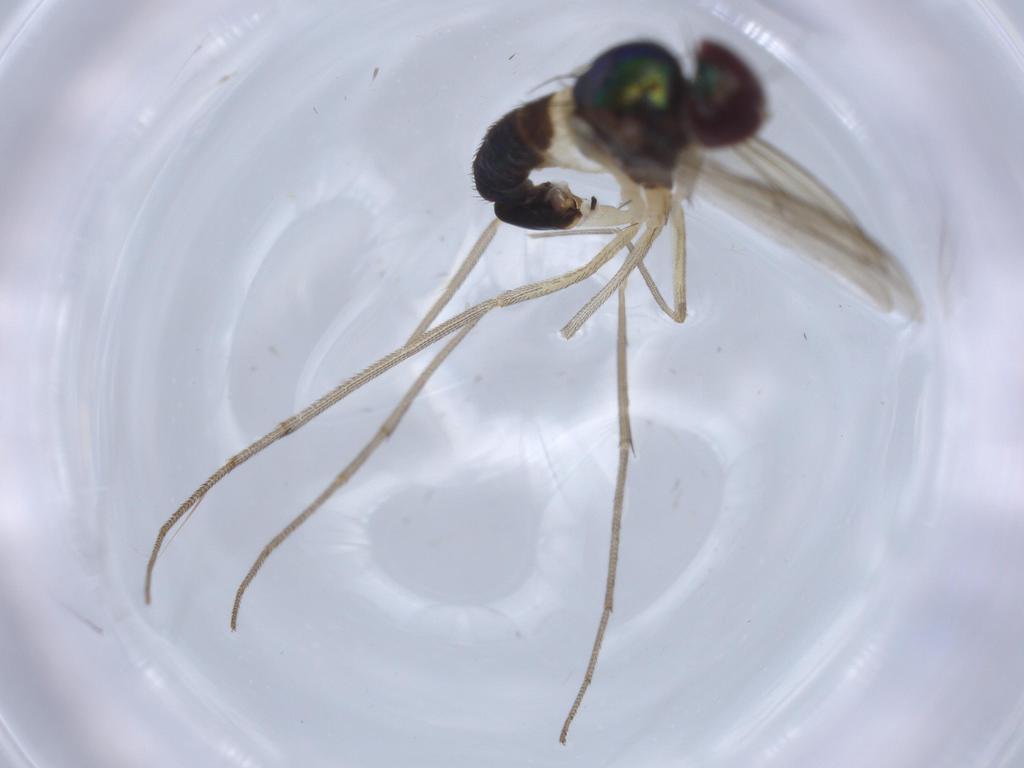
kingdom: Animalia
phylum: Arthropoda
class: Insecta
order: Diptera
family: Dolichopodidae
